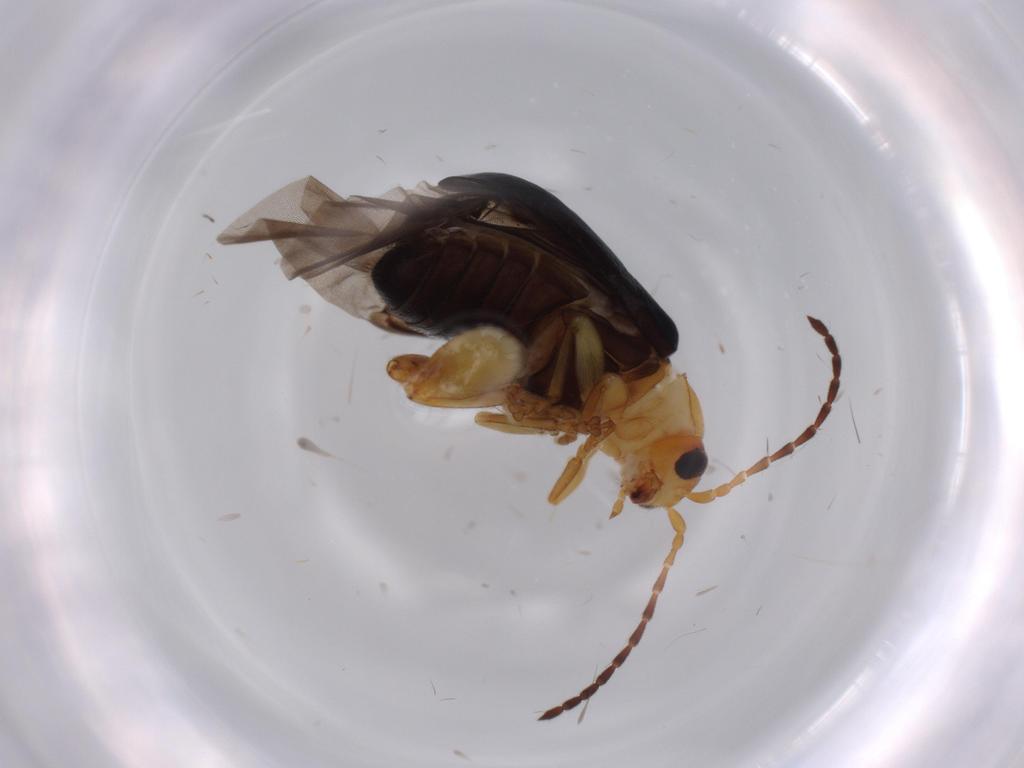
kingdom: Animalia
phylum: Arthropoda
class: Insecta
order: Coleoptera
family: Chrysomelidae
